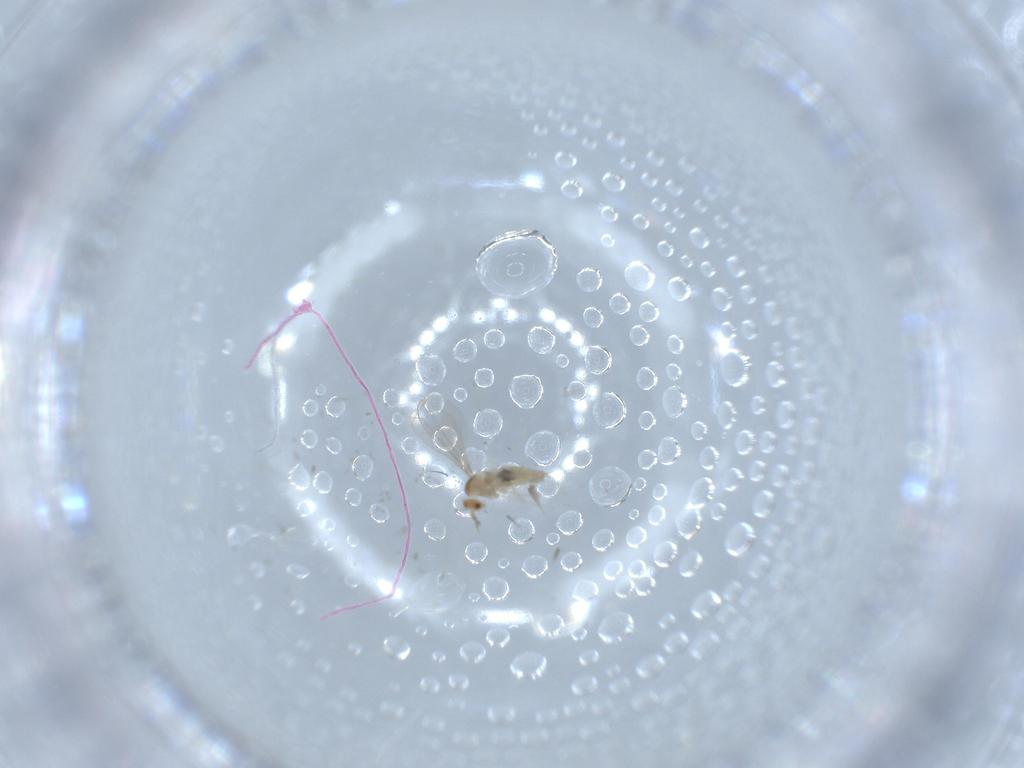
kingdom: Animalia
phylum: Arthropoda
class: Insecta
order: Diptera
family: Cecidomyiidae
